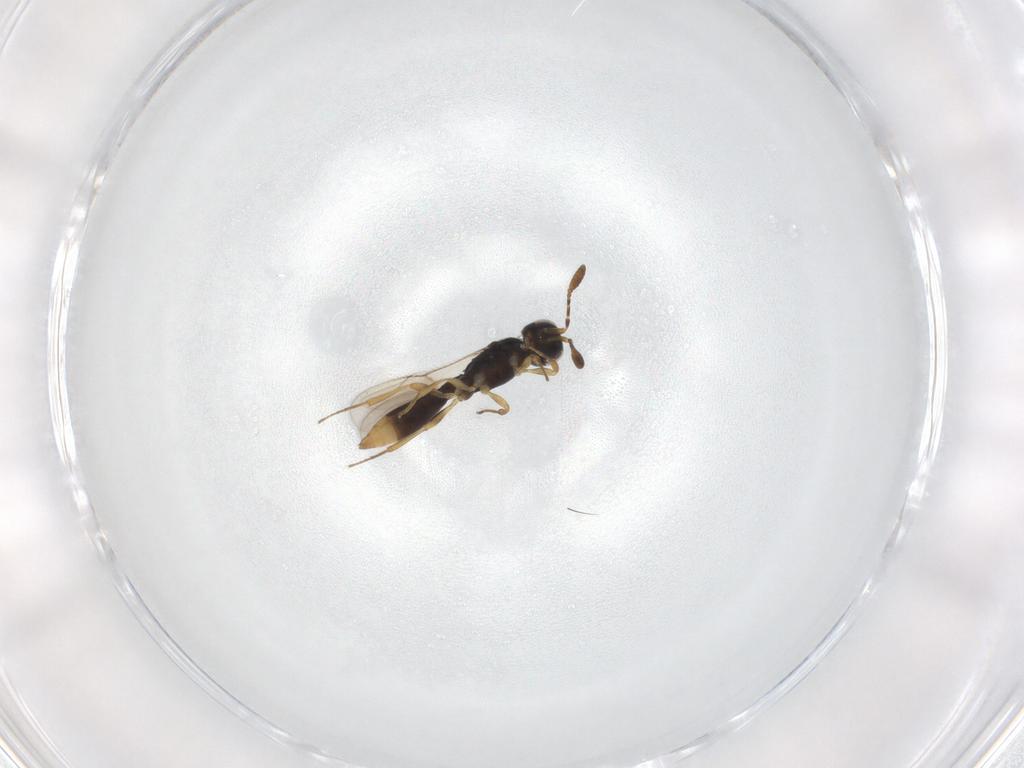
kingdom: Animalia
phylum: Arthropoda
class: Insecta
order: Hymenoptera
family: Scelionidae
